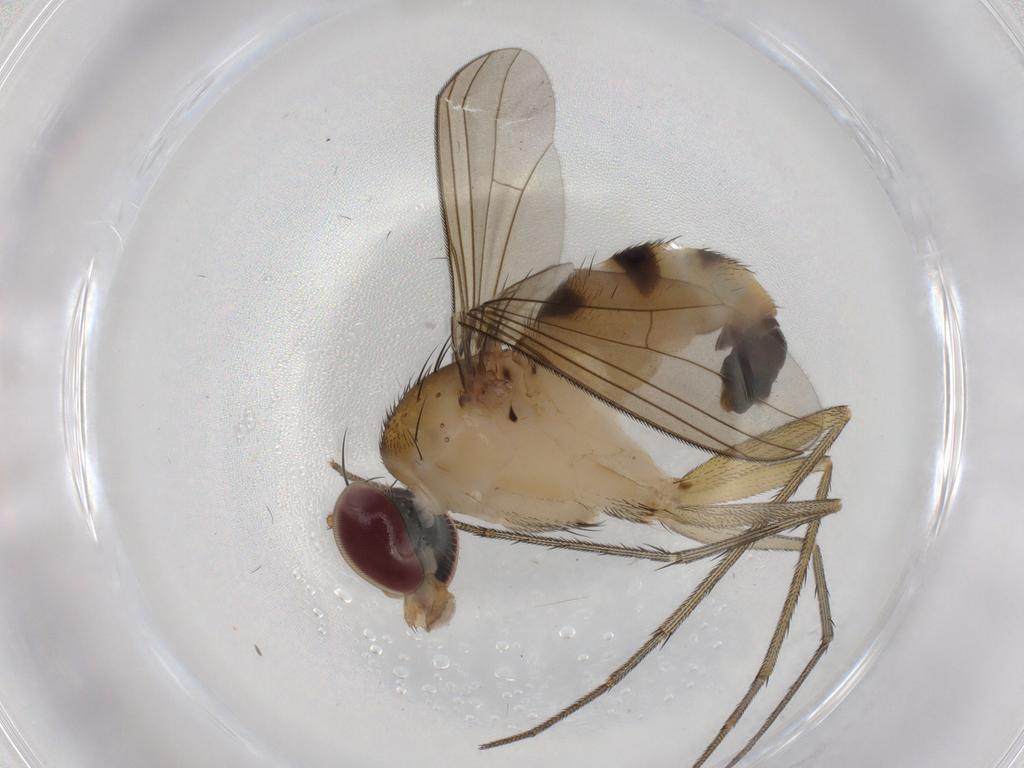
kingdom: Animalia
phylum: Arthropoda
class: Insecta
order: Diptera
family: Dolichopodidae
